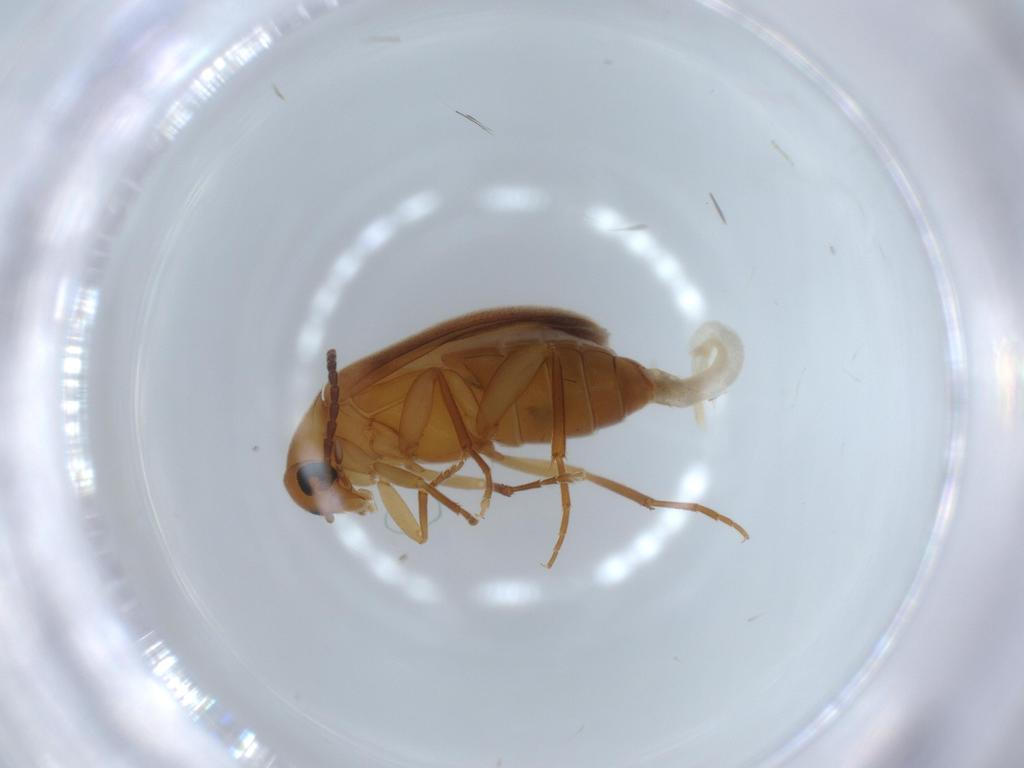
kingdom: Animalia
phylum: Arthropoda
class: Insecta
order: Coleoptera
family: Scraptiidae
